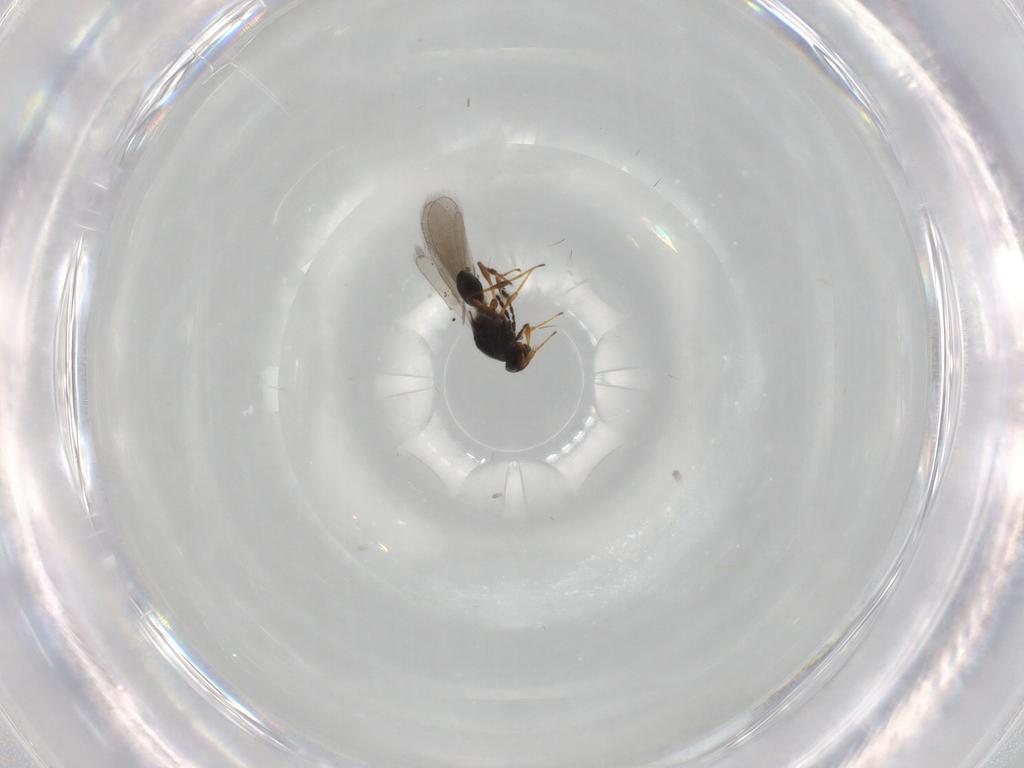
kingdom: Animalia
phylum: Arthropoda
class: Insecta
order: Hymenoptera
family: Platygastridae
